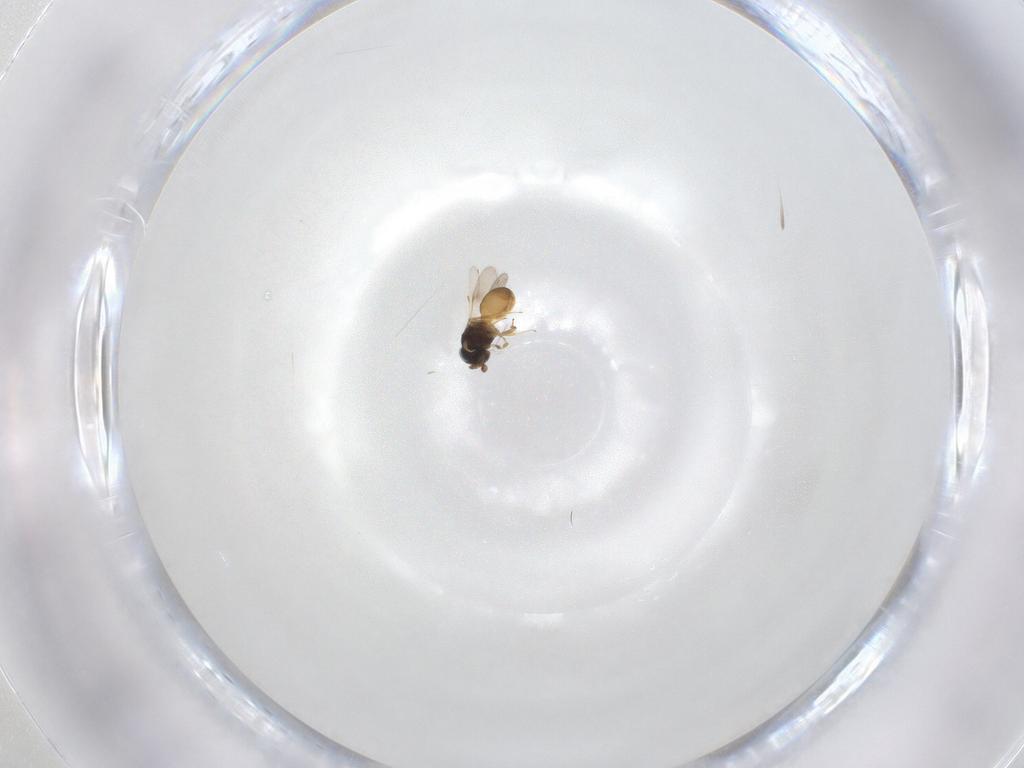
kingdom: Animalia
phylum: Arthropoda
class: Insecta
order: Hymenoptera
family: Scelionidae
